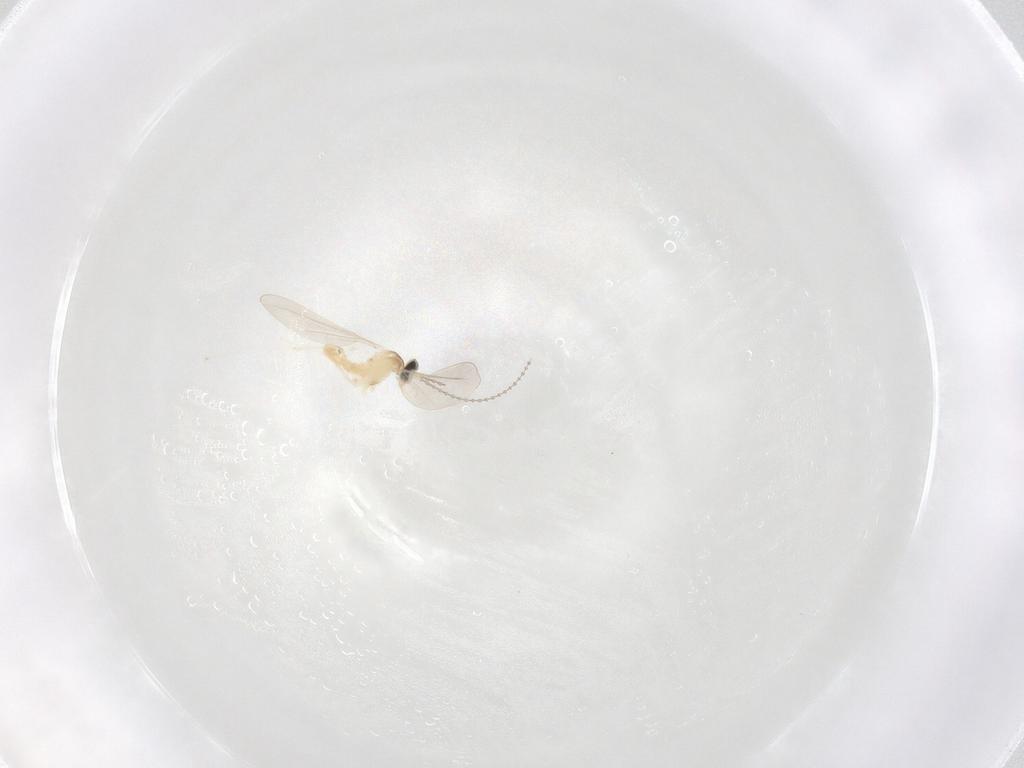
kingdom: Animalia
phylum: Arthropoda
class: Insecta
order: Diptera
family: Cecidomyiidae
